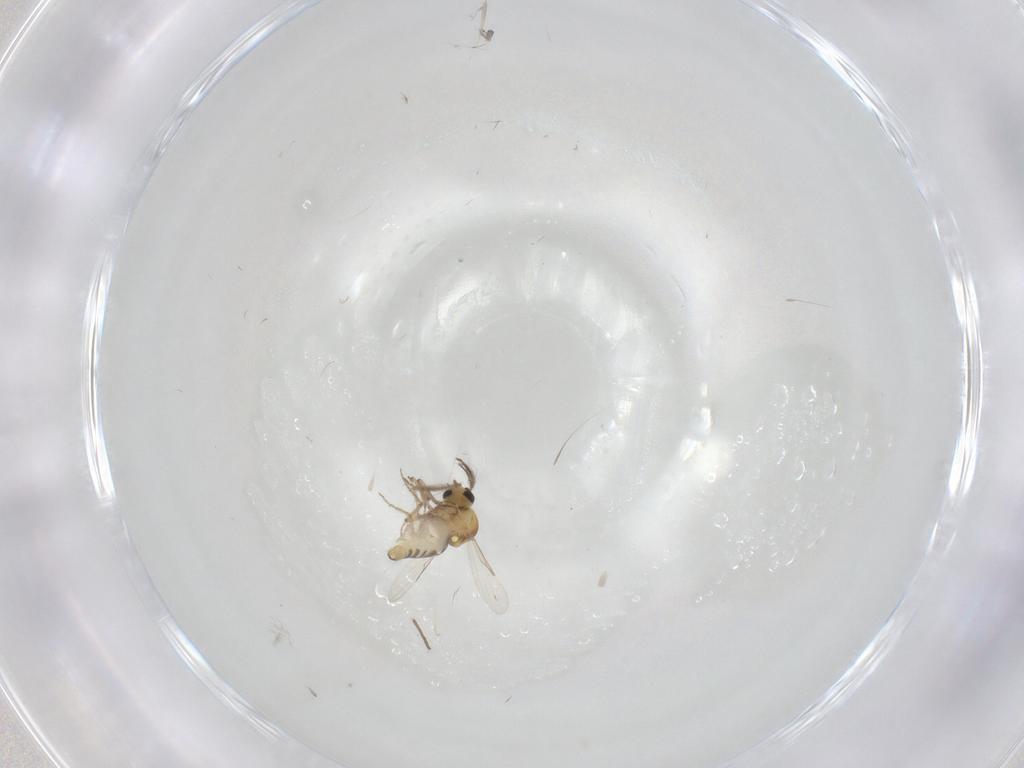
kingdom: Animalia
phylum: Arthropoda
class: Insecta
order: Diptera
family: Ceratopogonidae
